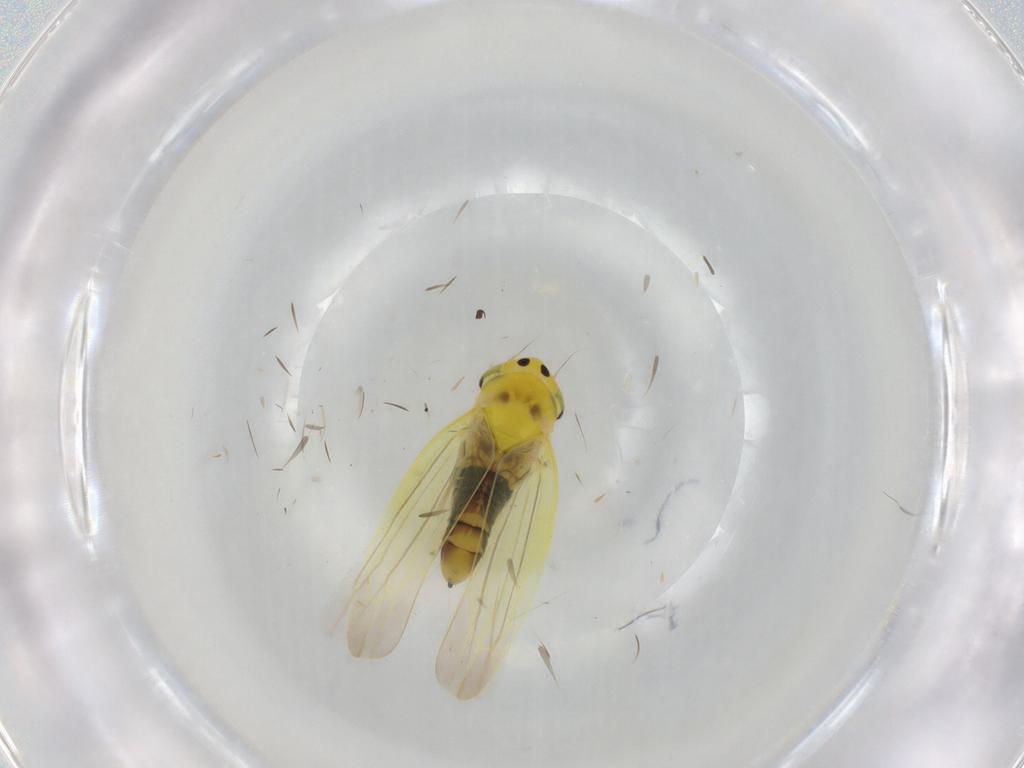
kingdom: Animalia
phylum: Arthropoda
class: Insecta
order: Hemiptera
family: Cicadellidae
